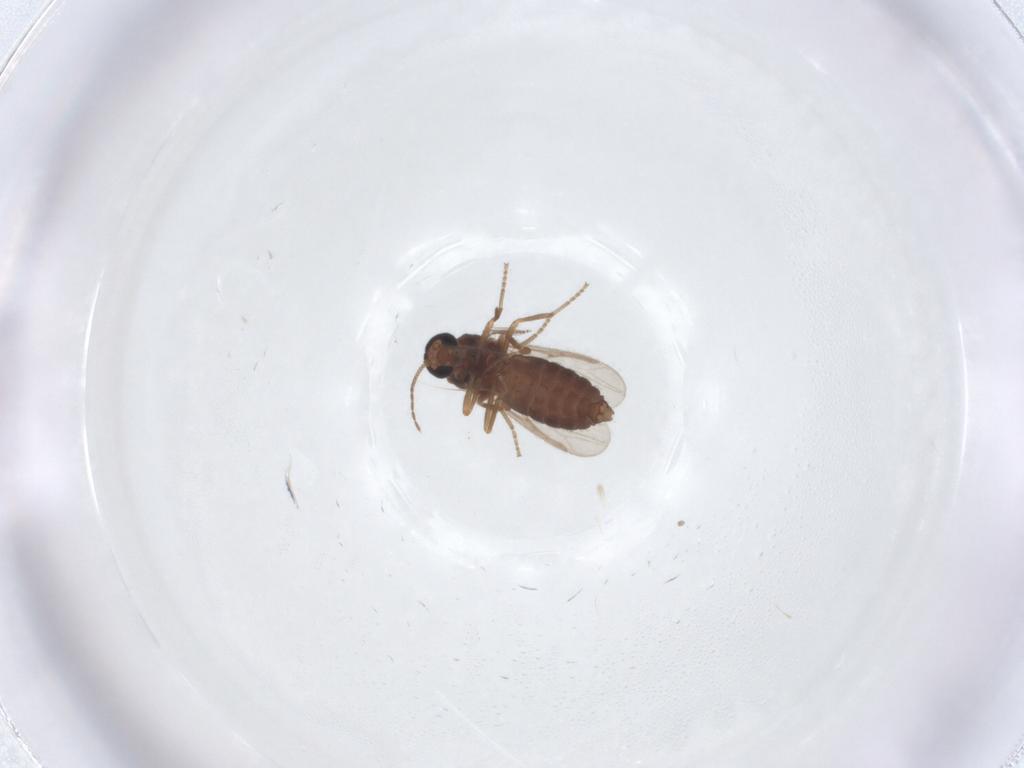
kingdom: Animalia
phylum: Arthropoda
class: Insecta
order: Diptera
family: Ceratopogonidae
